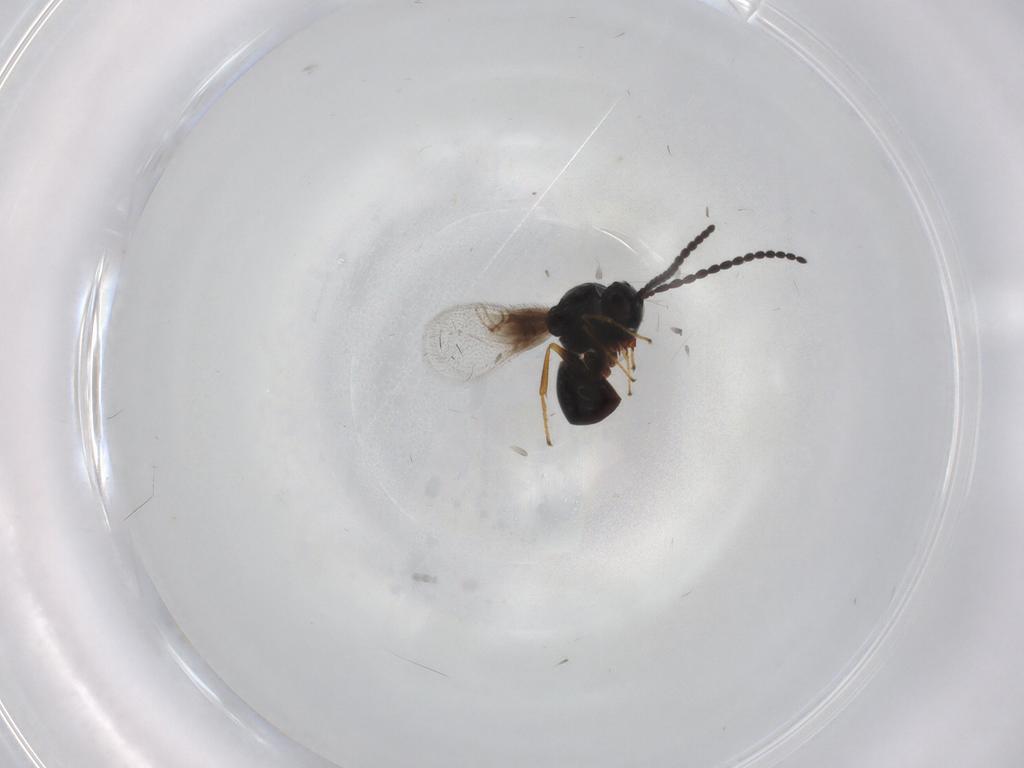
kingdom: Animalia
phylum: Arthropoda
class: Insecta
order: Hymenoptera
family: Figitidae
